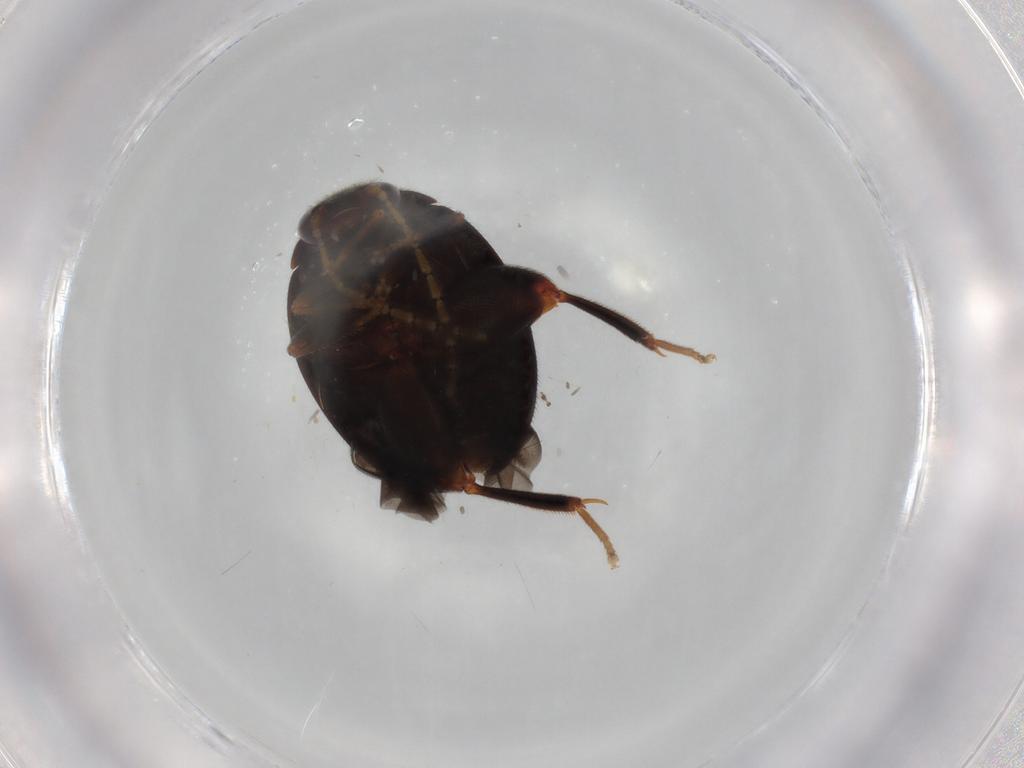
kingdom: Animalia
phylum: Arthropoda
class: Insecta
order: Coleoptera
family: Scirtidae
